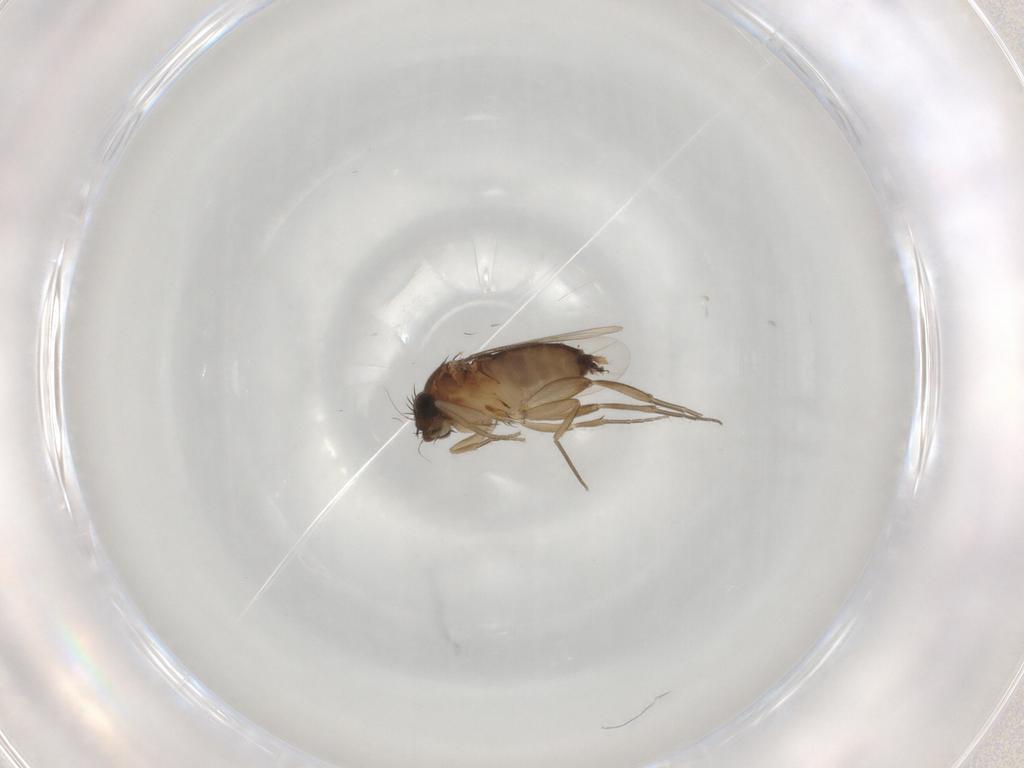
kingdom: Animalia
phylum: Arthropoda
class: Insecta
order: Diptera
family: Phoridae
